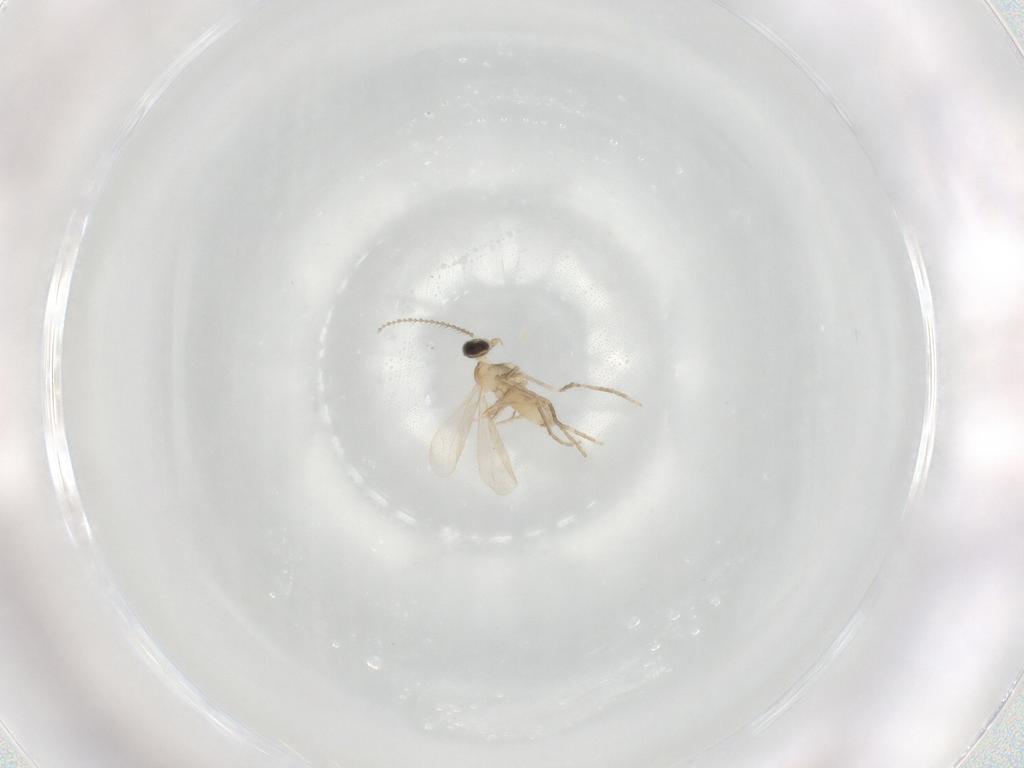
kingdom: Animalia
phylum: Arthropoda
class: Insecta
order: Diptera
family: Cecidomyiidae
